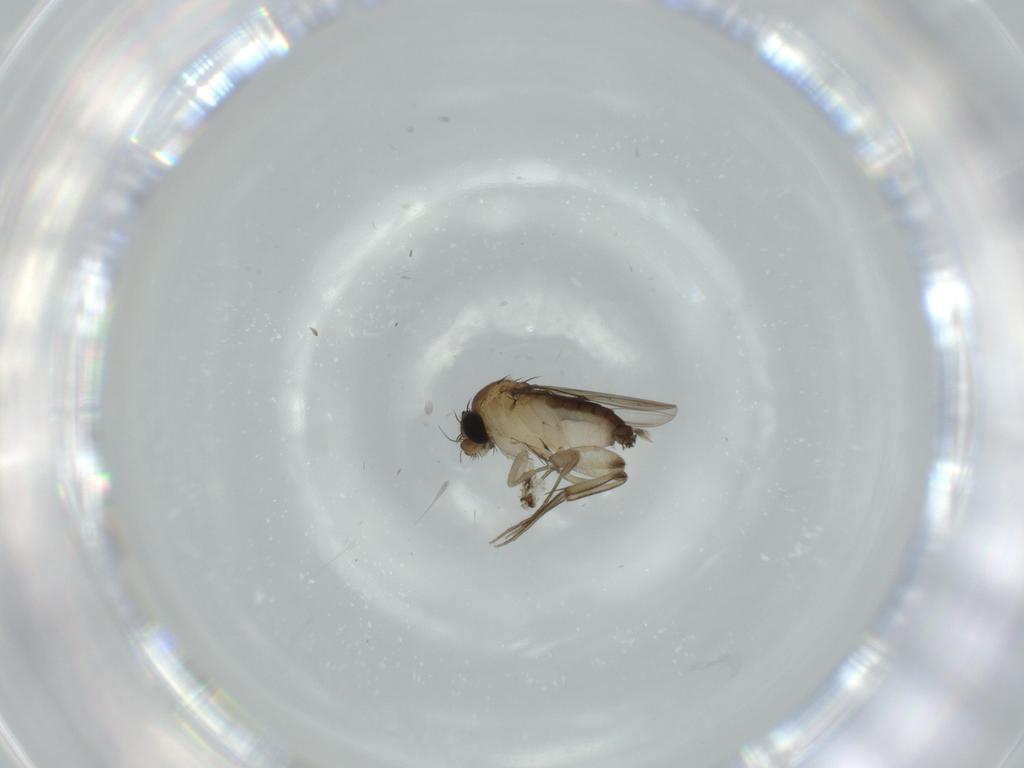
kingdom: Animalia
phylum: Arthropoda
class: Insecta
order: Diptera
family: Phoridae
